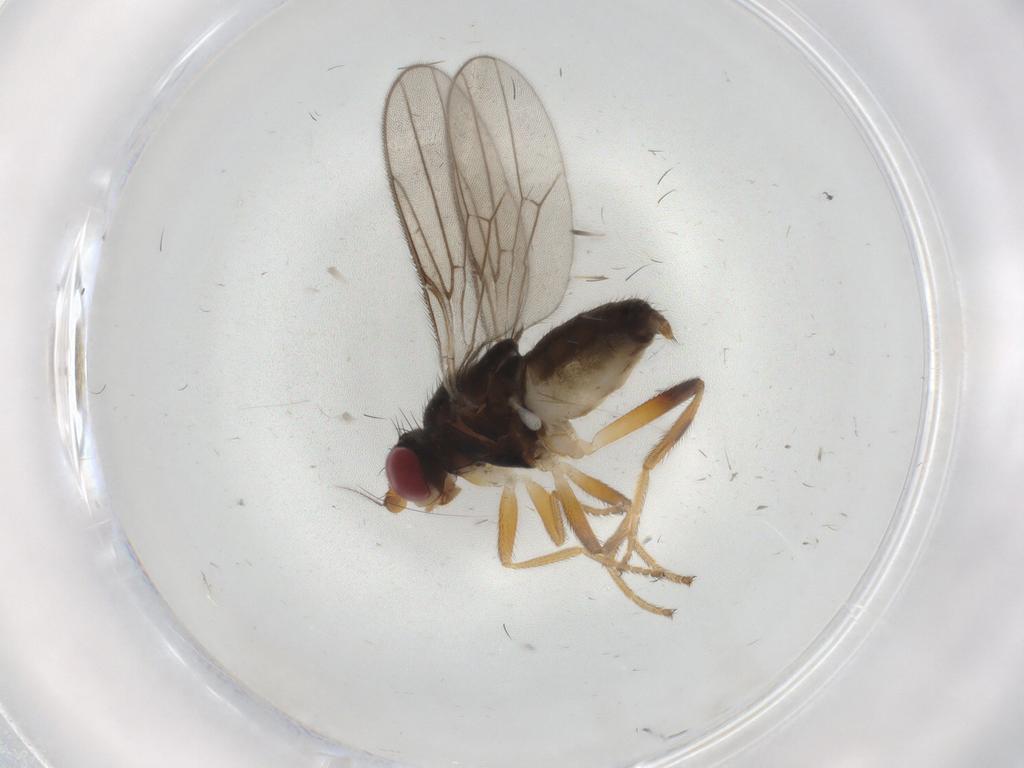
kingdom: Animalia
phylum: Arthropoda
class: Insecta
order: Diptera
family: Chloropidae
